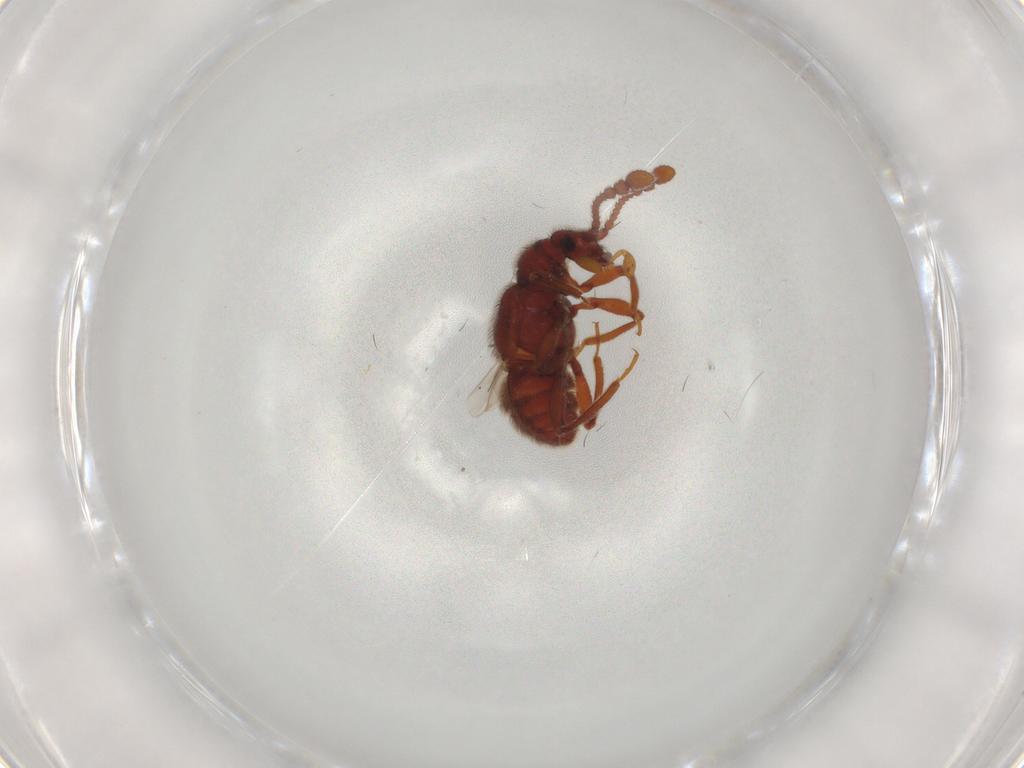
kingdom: Animalia
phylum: Arthropoda
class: Insecta
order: Coleoptera
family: Staphylinidae
